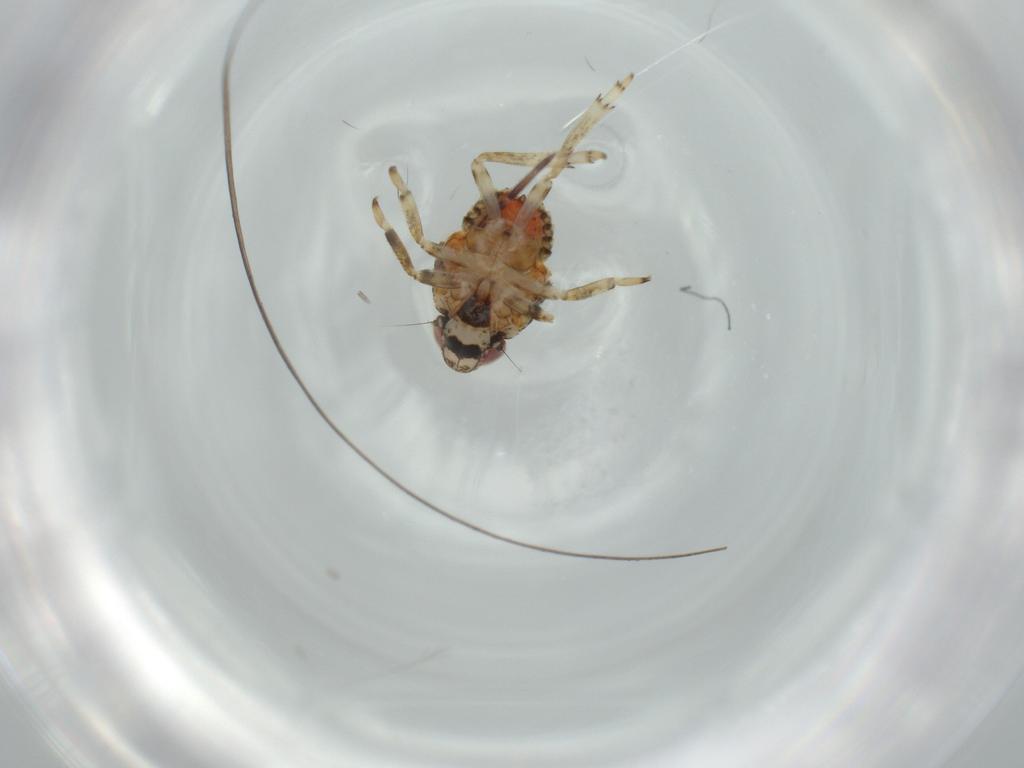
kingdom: Animalia
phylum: Arthropoda
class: Insecta
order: Hemiptera
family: Issidae
